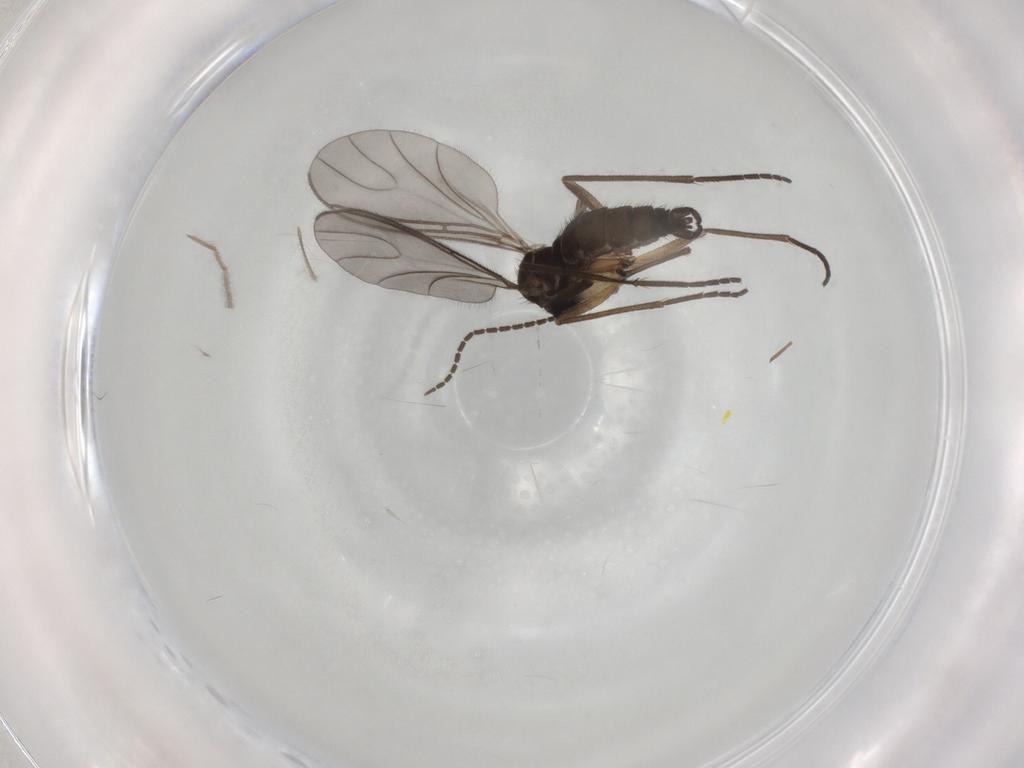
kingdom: Animalia
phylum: Arthropoda
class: Insecta
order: Diptera
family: Sciaridae
